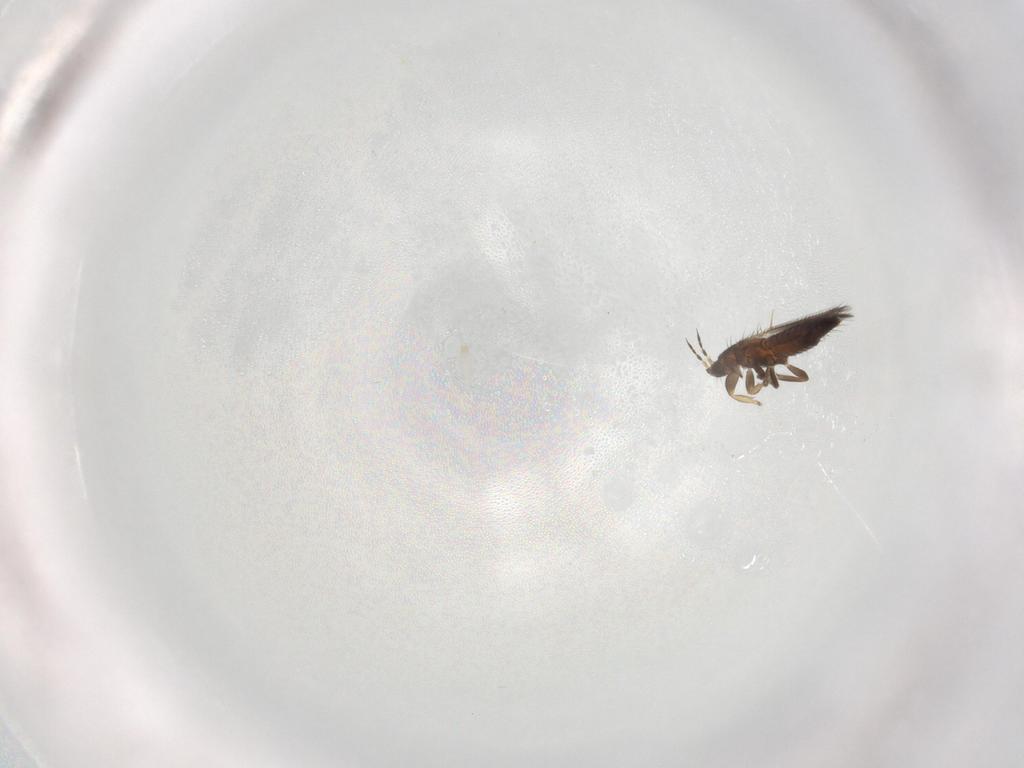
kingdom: Animalia
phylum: Arthropoda
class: Insecta
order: Thysanoptera
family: Thripidae
